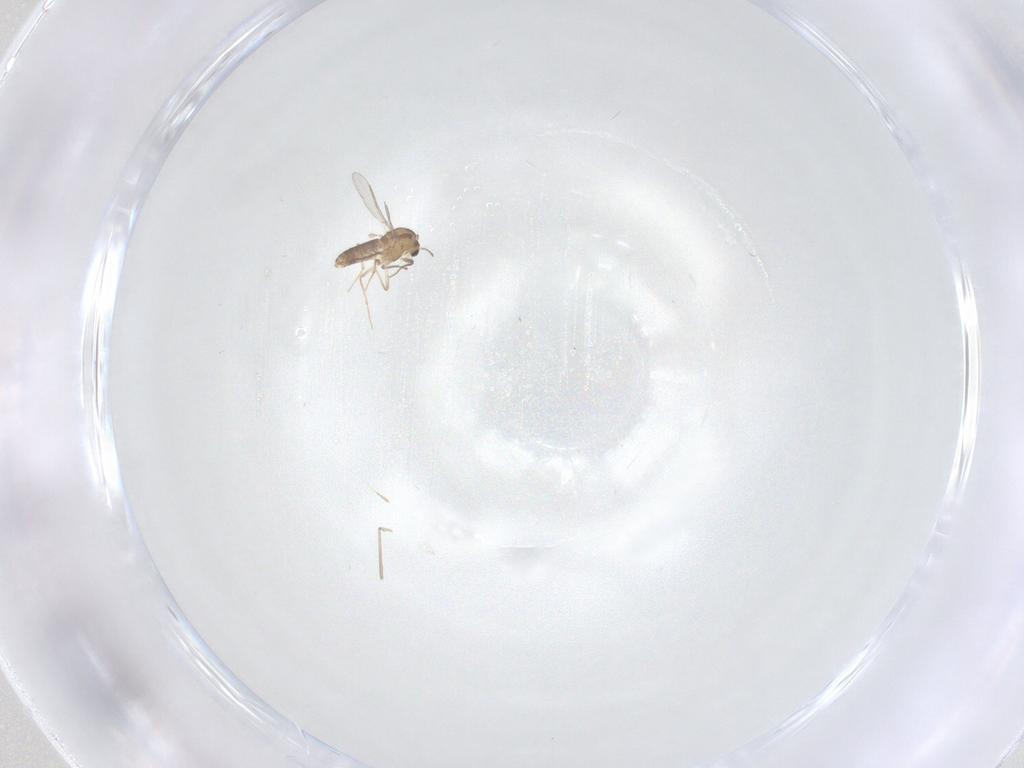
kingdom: Animalia
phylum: Arthropoda
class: Insecta
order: Diptera
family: Chironomidae
